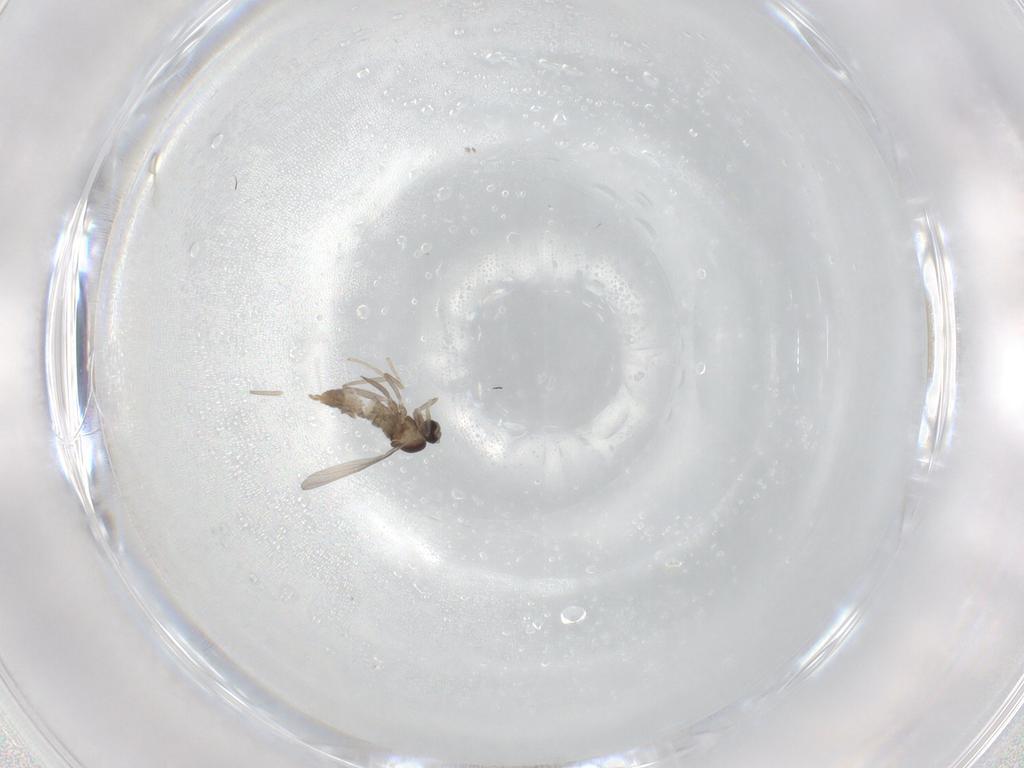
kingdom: Animalia
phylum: Arthropoda
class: Insecta
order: Diptera
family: Cecidomyiidae
